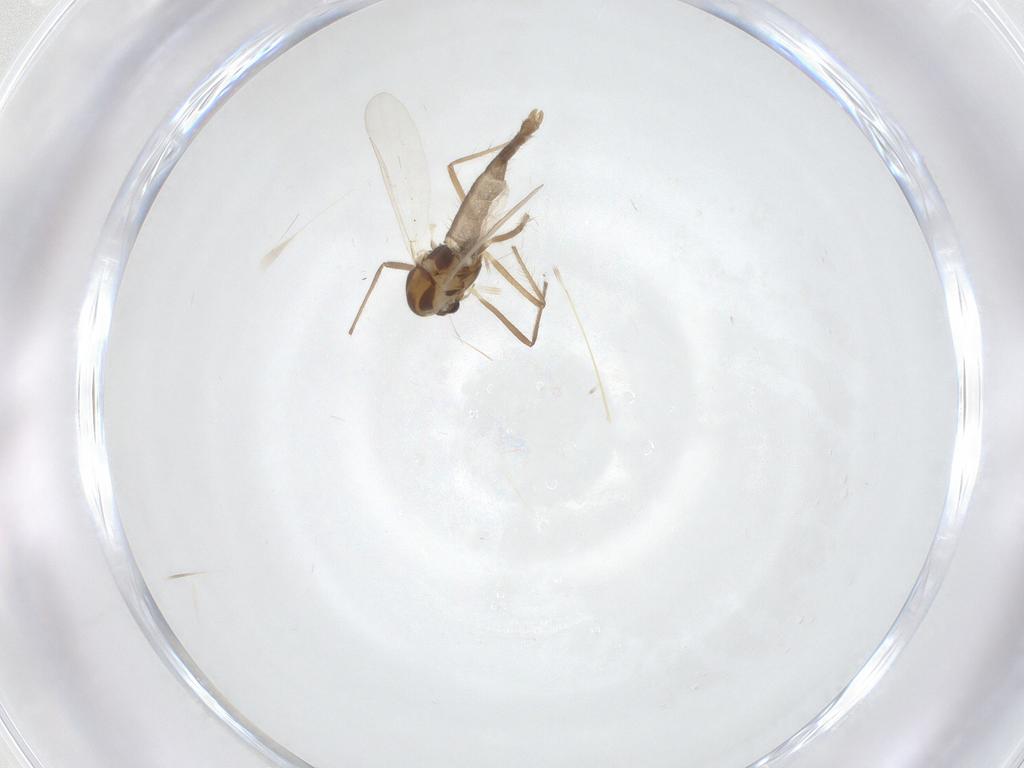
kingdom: Animalia
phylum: Arthropoda
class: Insecta
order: Diptera
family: Chironomidae
